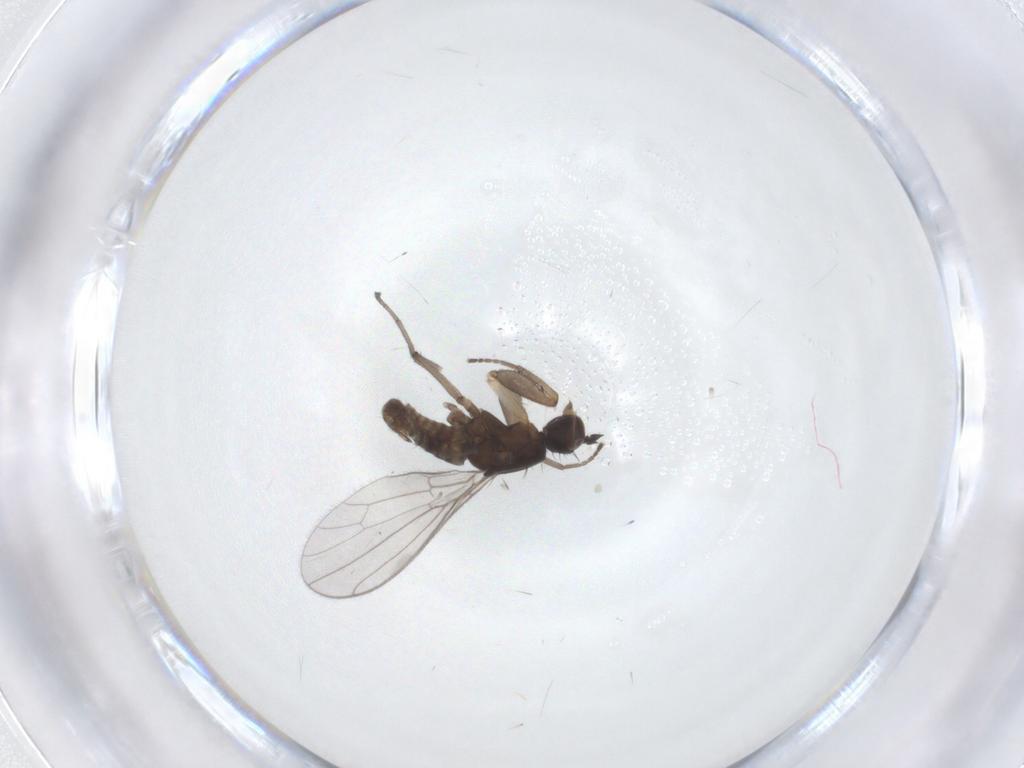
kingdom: Animalia
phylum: Arthropoda
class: Insecta
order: Diptera
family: Empididae
